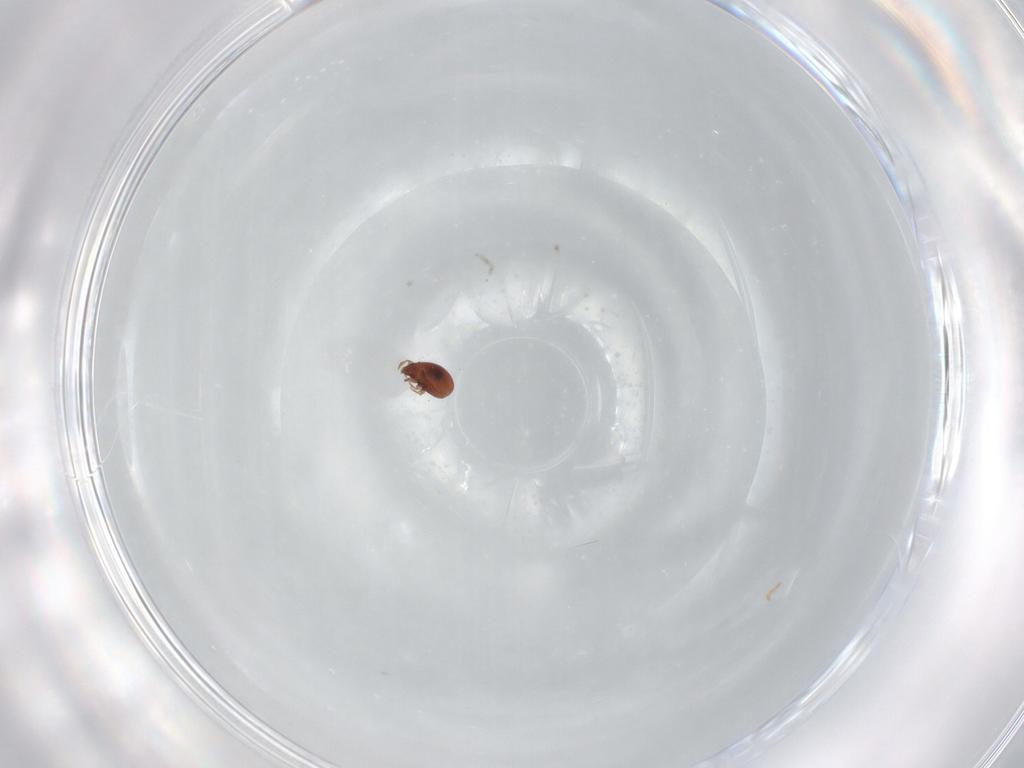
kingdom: Animalia
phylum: Arthropoda
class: Arachnida
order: Sarcoptiformes
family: Scheloribatidae
